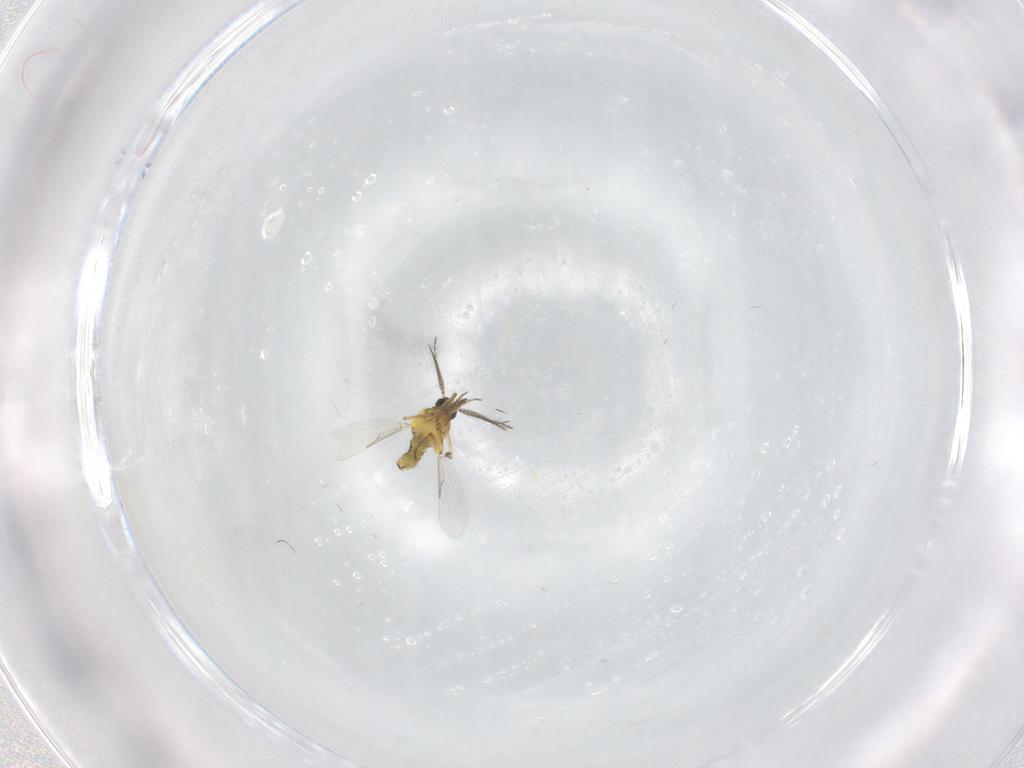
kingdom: Animalia
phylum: Arthropoda
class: Insecta
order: Diptera
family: Ceratopogonidae
